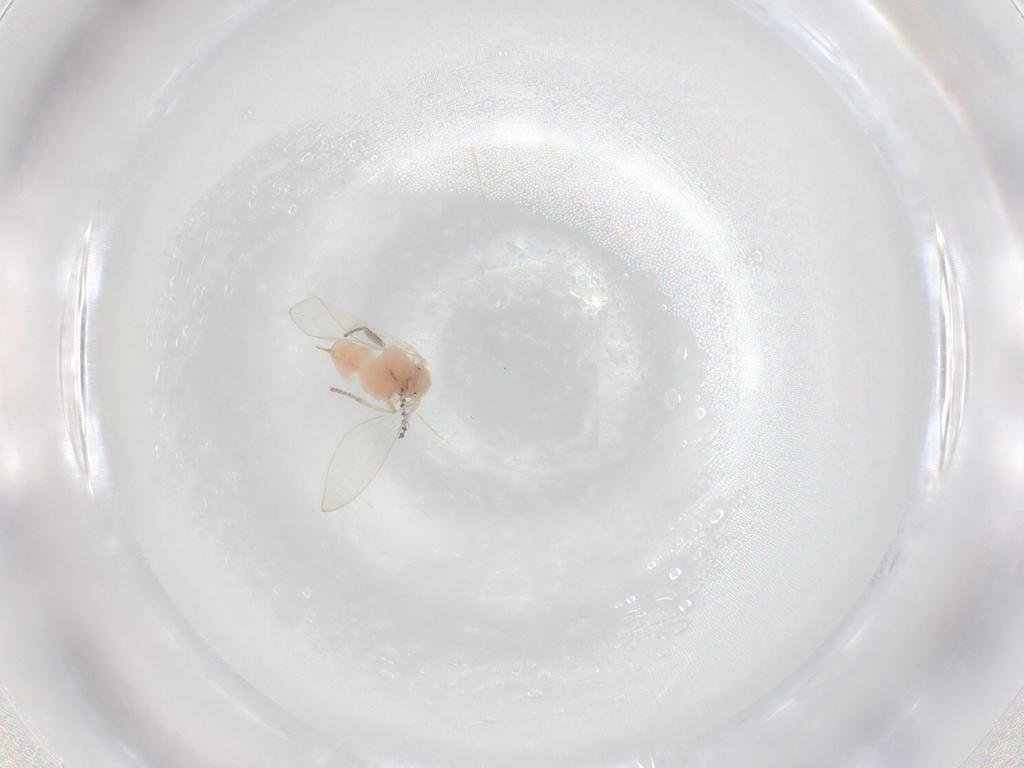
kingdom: Animalia
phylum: Arthropoda
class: Insecta
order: Diptera
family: Psychodidae
